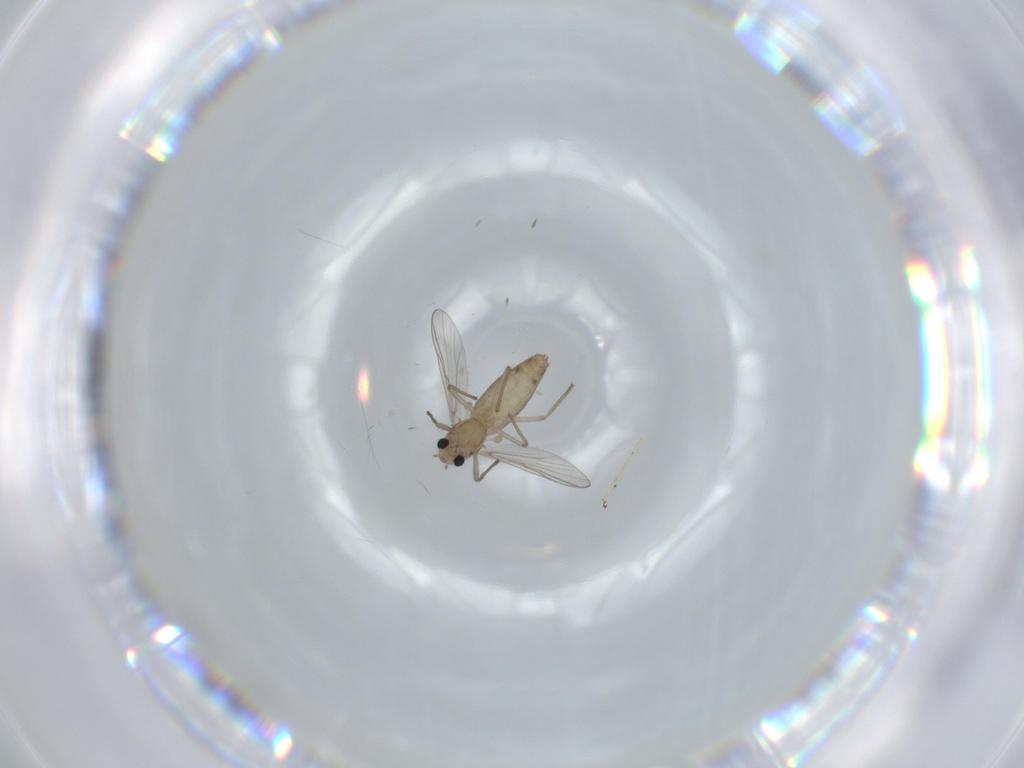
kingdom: Animalia
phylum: Arthropoda
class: Insecta
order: Diptera
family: Chironomidae
